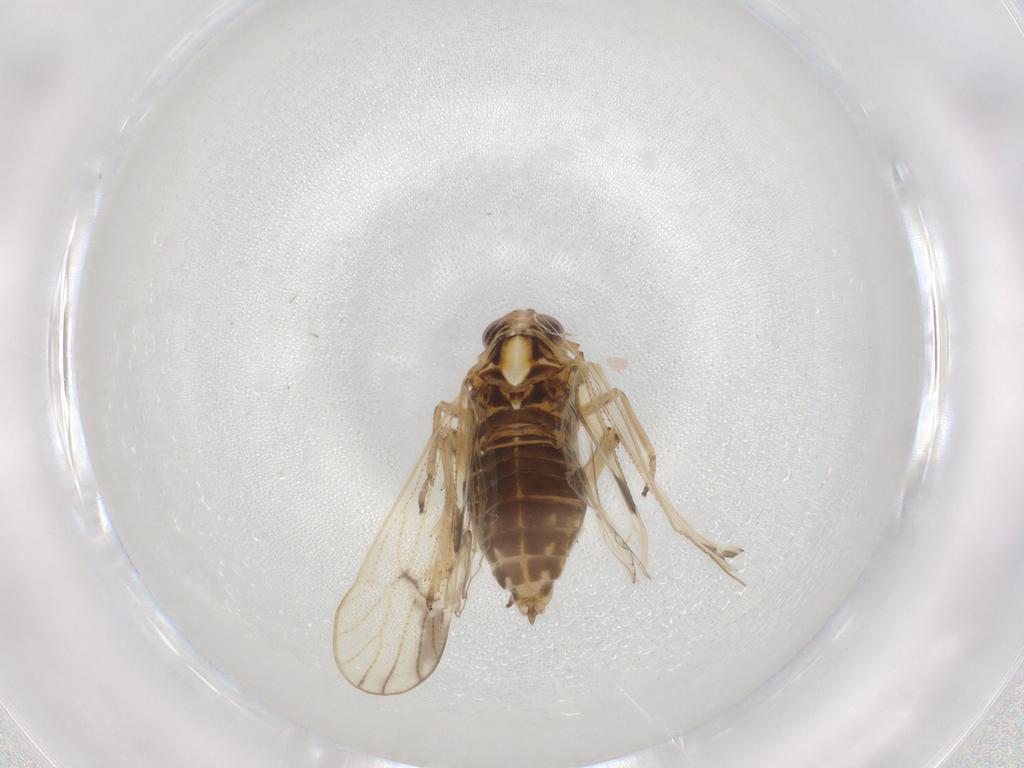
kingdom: Animalia
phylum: Arthropoda
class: Insecta
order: Hemiptera
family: Delphacidae
